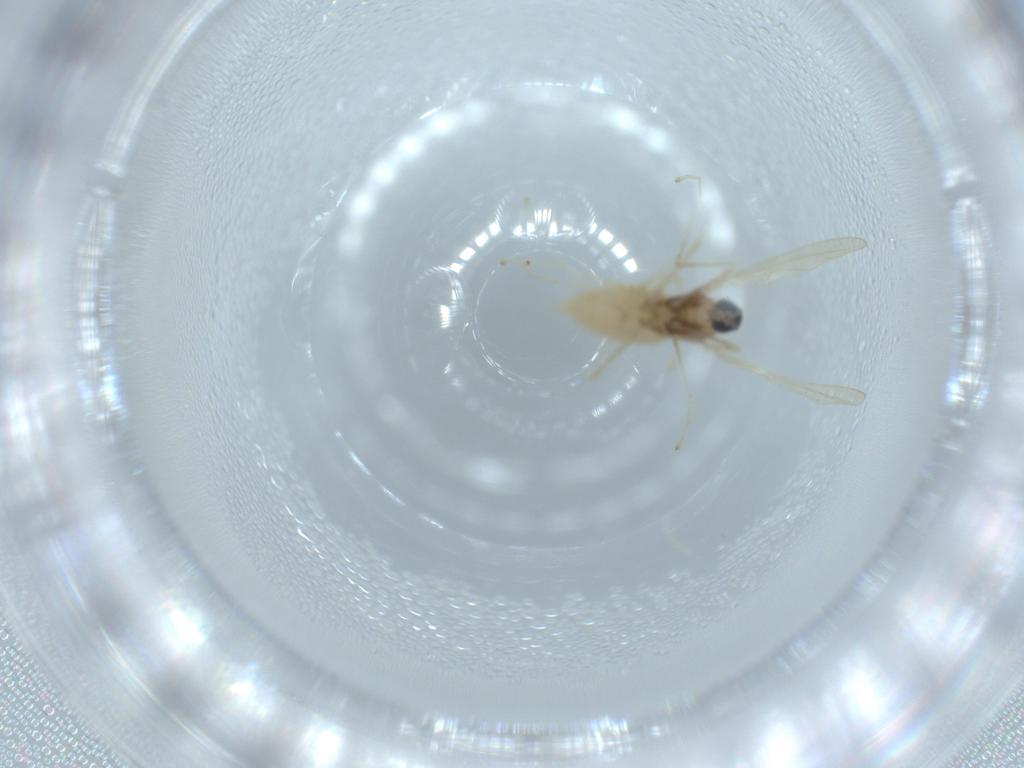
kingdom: Animalia
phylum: Arthropoda
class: Insecta
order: Diptera
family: Cecidomyiidae
